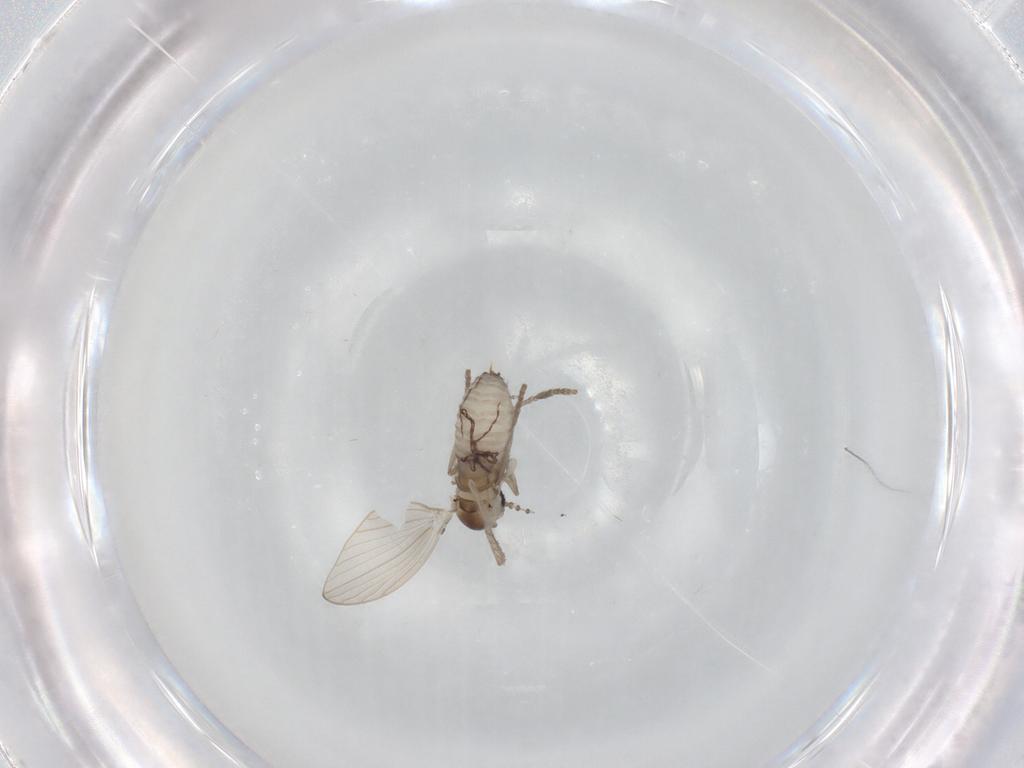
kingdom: Animalia
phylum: Arthropoda
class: Insecta
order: Diptera
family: Psychodidae
